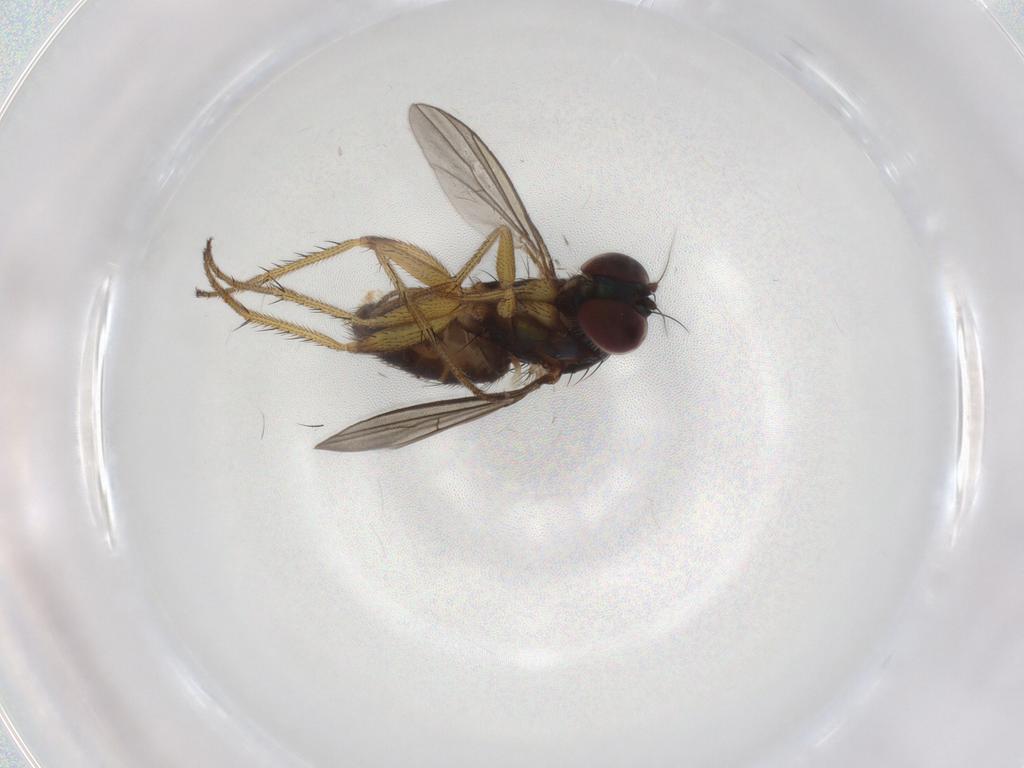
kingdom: Animalia
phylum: Arthropoda
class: Insecta
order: Diptera
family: Dolichopodidae
